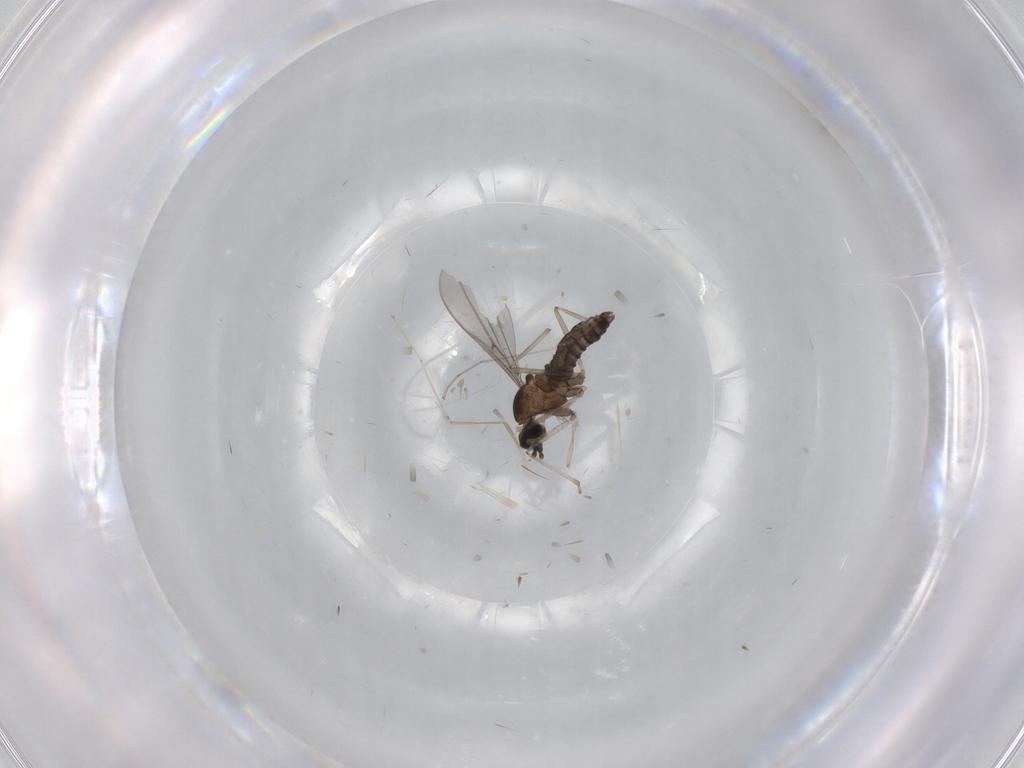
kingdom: Animalia
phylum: Arthropoda
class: Insecta
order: Diptera
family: Cecidomyiidae
